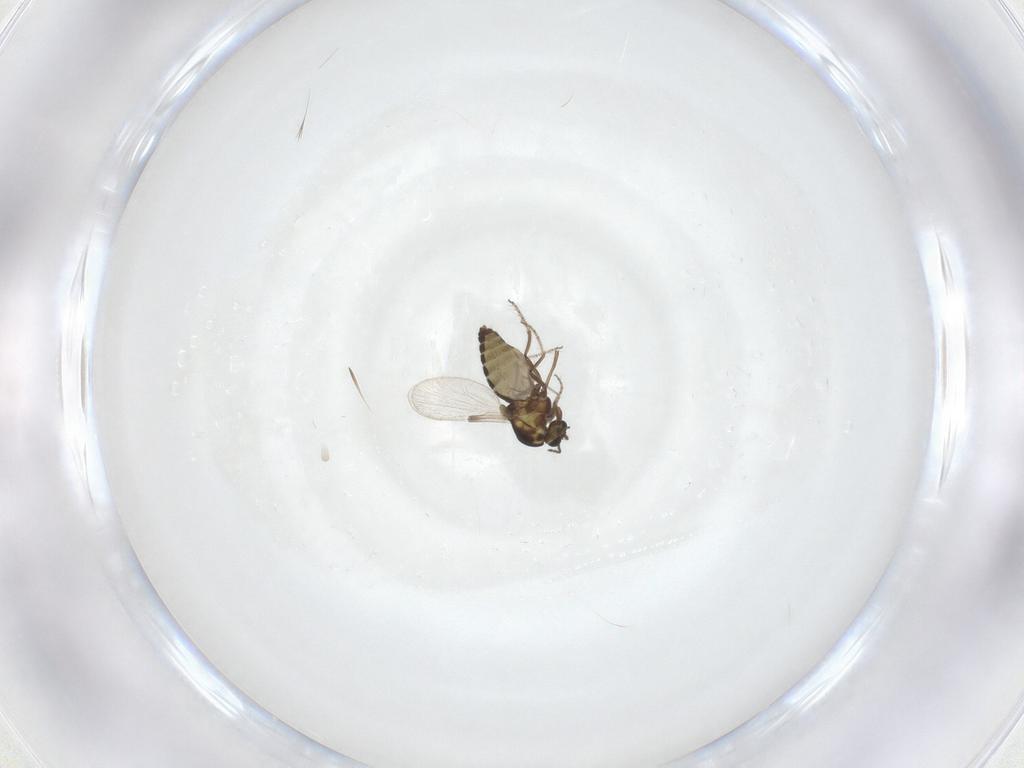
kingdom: Animalia
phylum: Arthropoda
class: Insecta
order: Diptera
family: Ceratopogonidae
